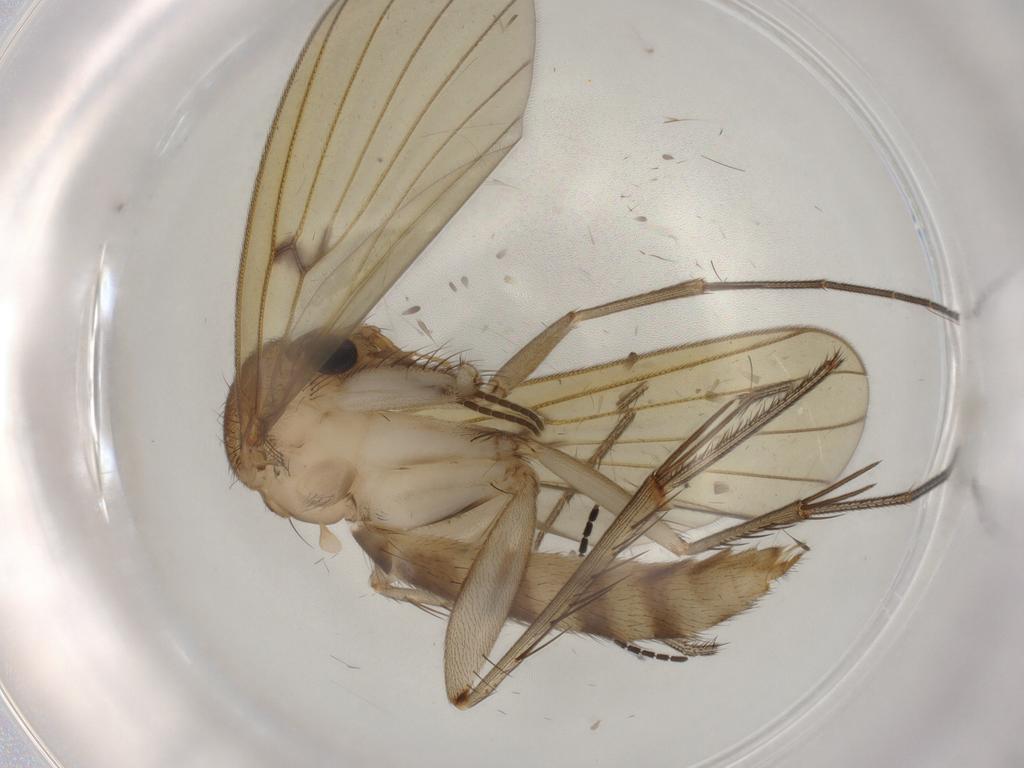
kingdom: Animalia
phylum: Arthropoda
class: Insecta
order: Diptera
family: Mycetophilidae
